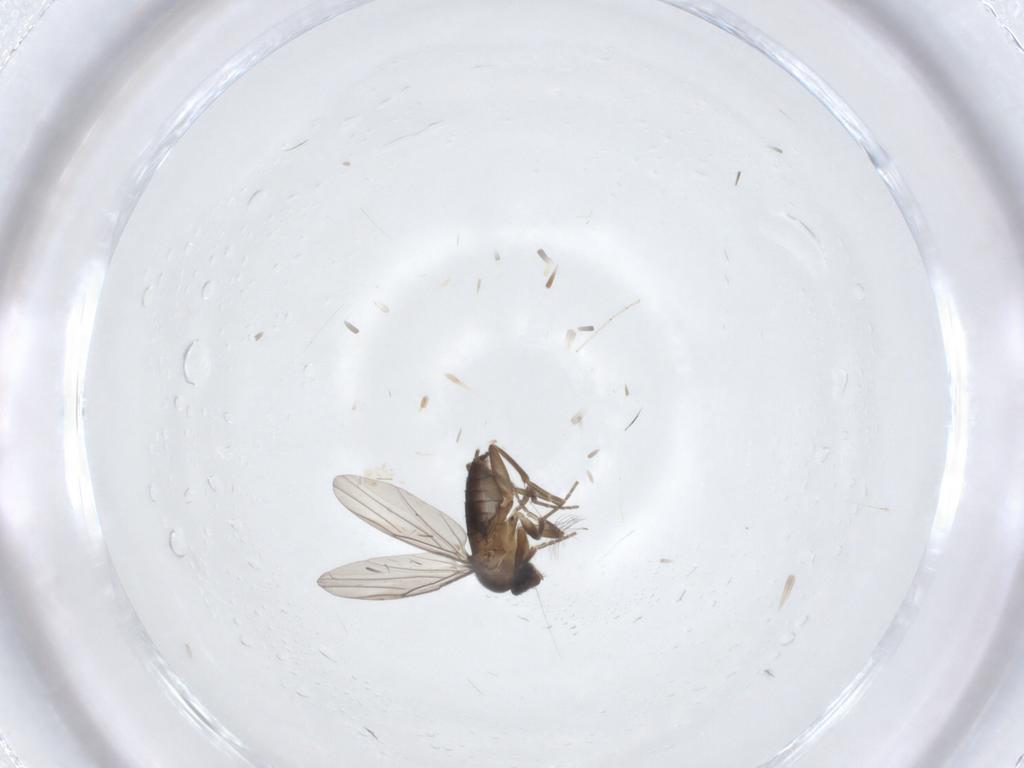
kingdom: Animalia
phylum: Arthropoda
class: Insecta
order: Diptera
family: Ceratopogonidae
